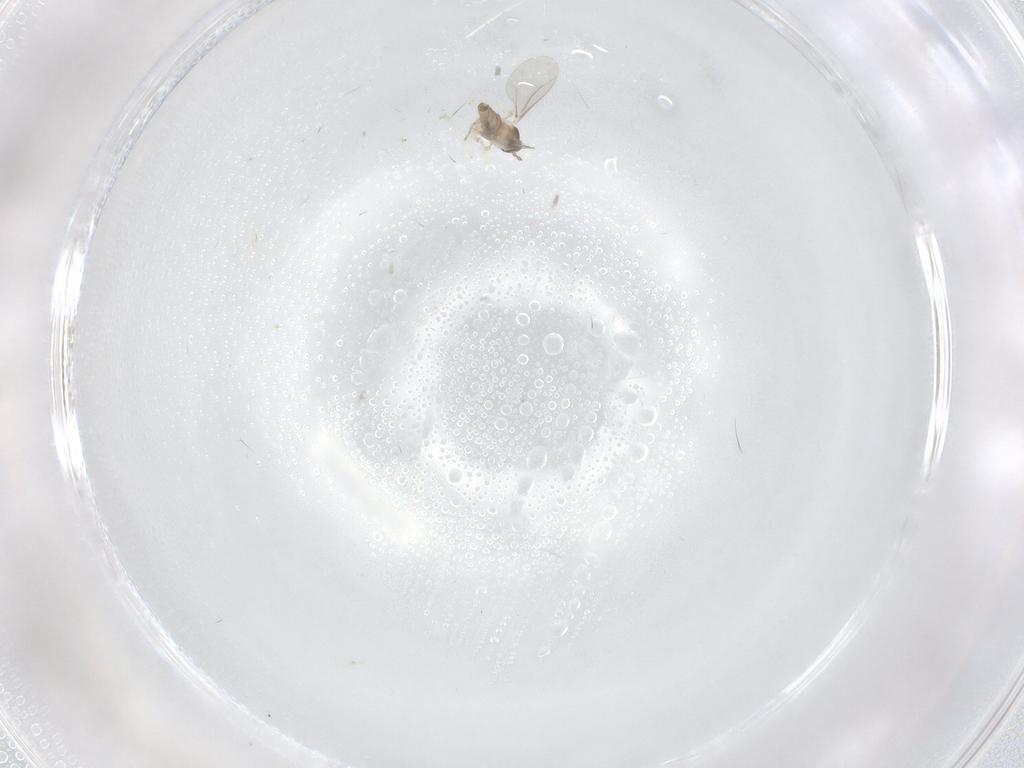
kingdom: Animalia
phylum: Arthropoda
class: Insecta
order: Diptera
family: Cecidomyiidae
